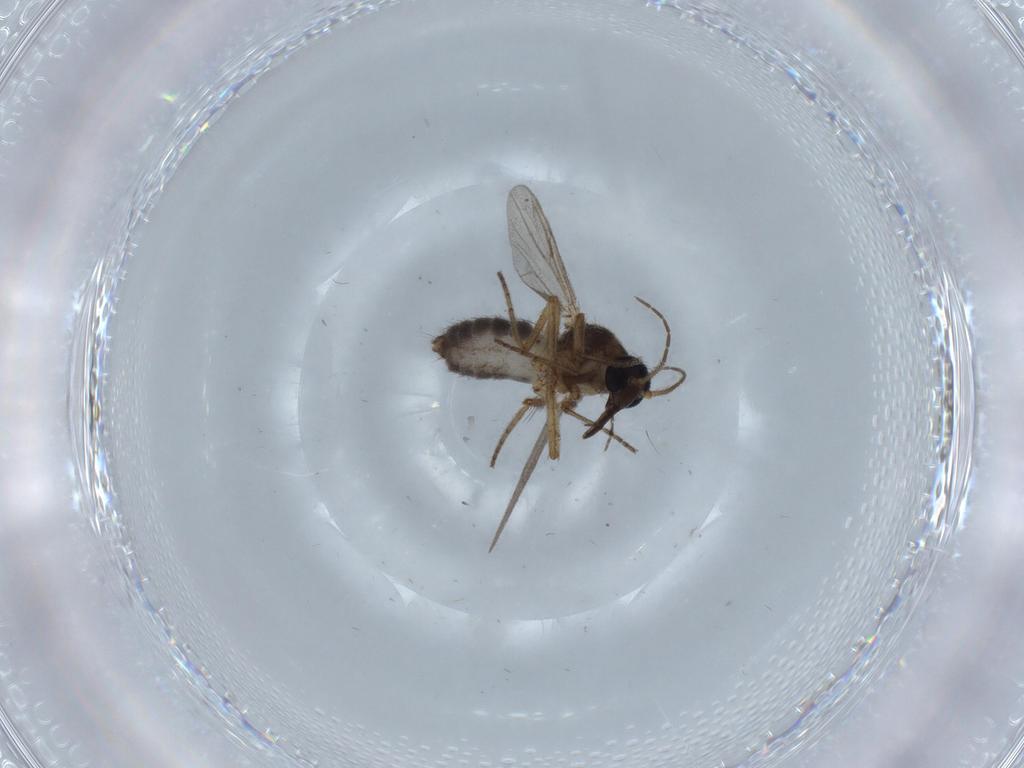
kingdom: Animalia
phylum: Arthropoda
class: Insecta
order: Diptera
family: Ceratopogonidae
